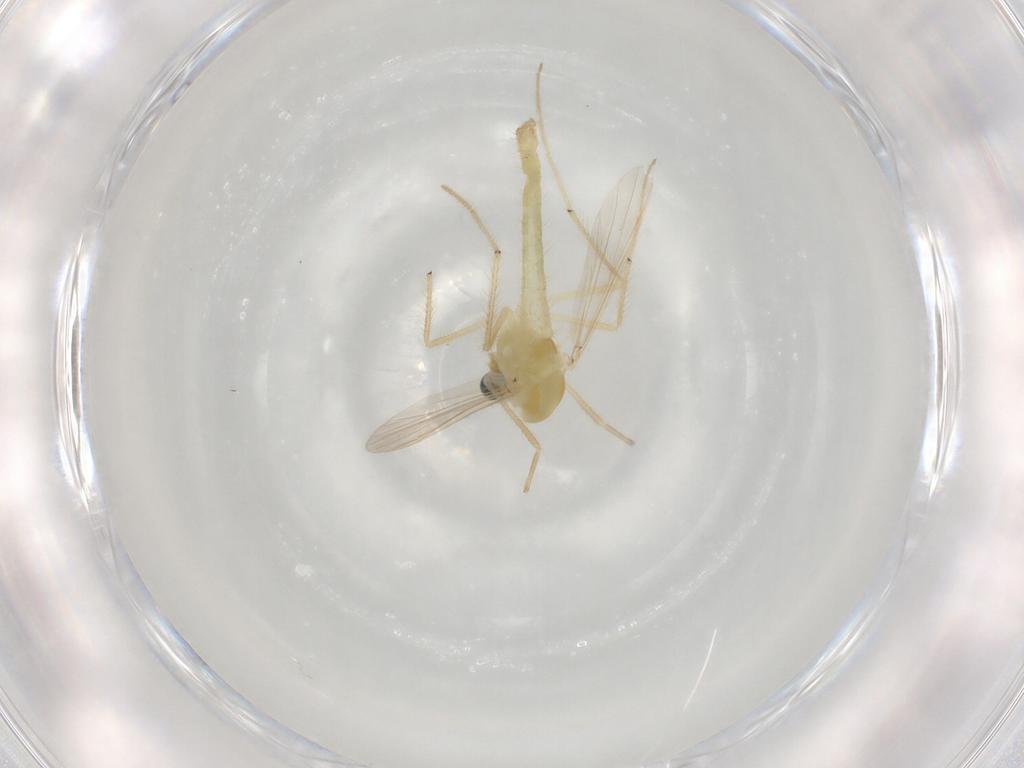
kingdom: Animalia
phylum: Arthropoda
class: Insecta
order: Diptera
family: Chironomidae
